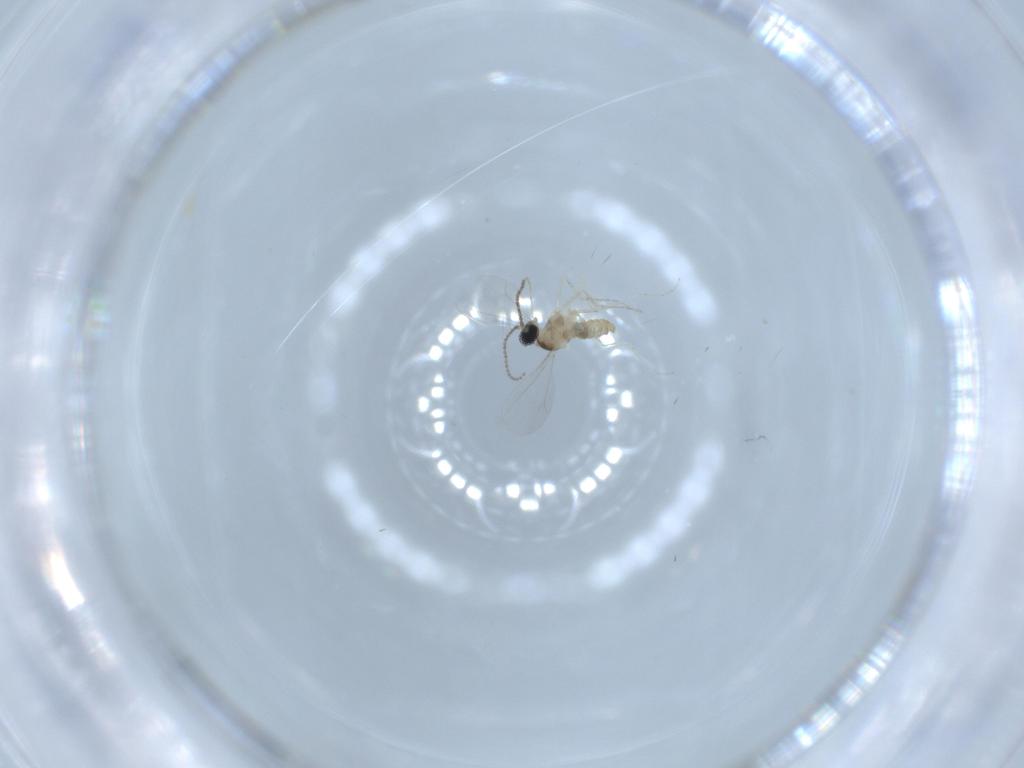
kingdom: Animalia
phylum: Arthropoda
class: Insecta
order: Diptera
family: Cecidomyiidae
